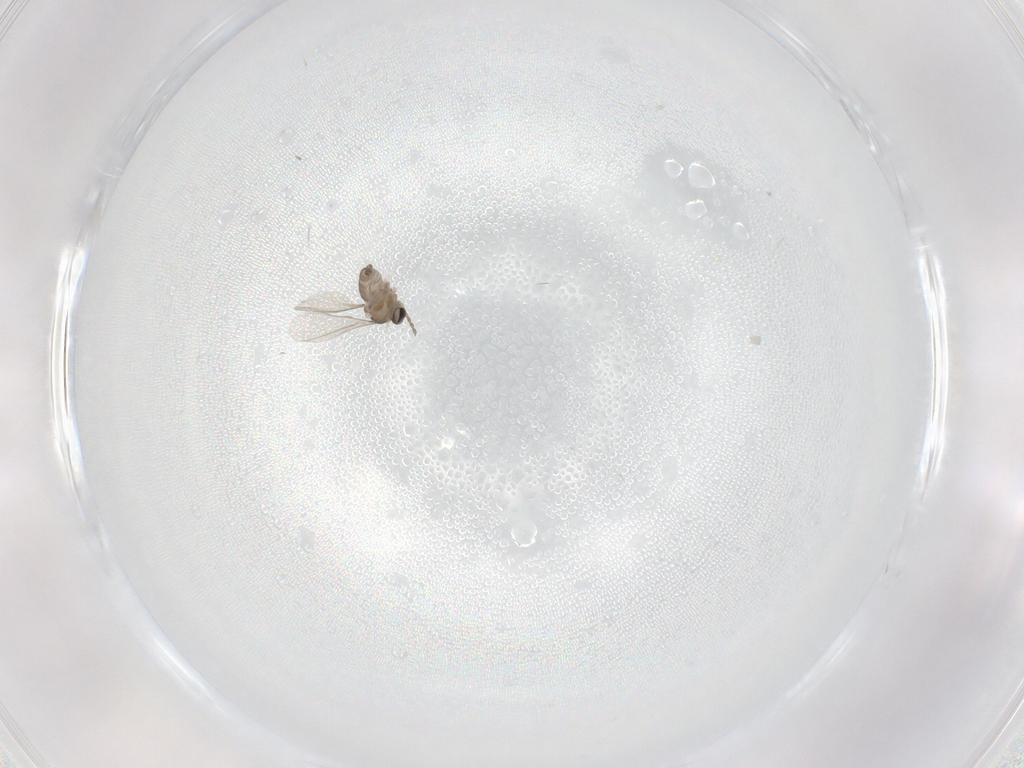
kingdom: Animalia
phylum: Arthropoda
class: Insecta
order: Diptera
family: Cecidomyiidae
